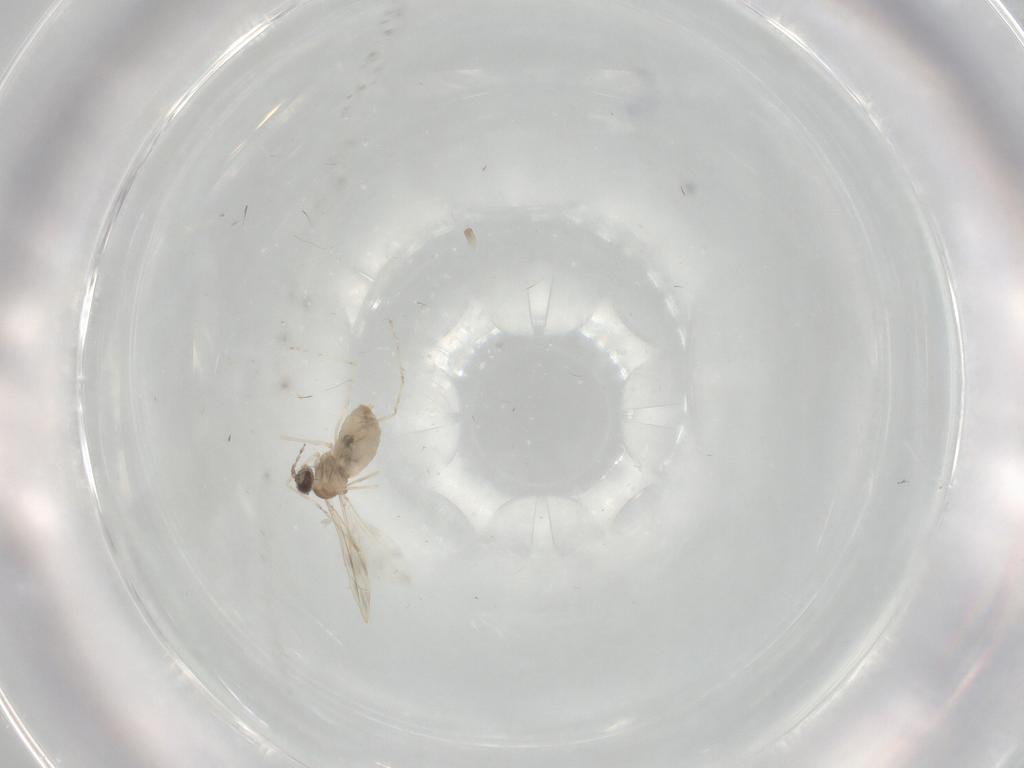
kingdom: Animalia
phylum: Arthropoda
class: Insecta
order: Diptera
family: Cecidomyiidae
